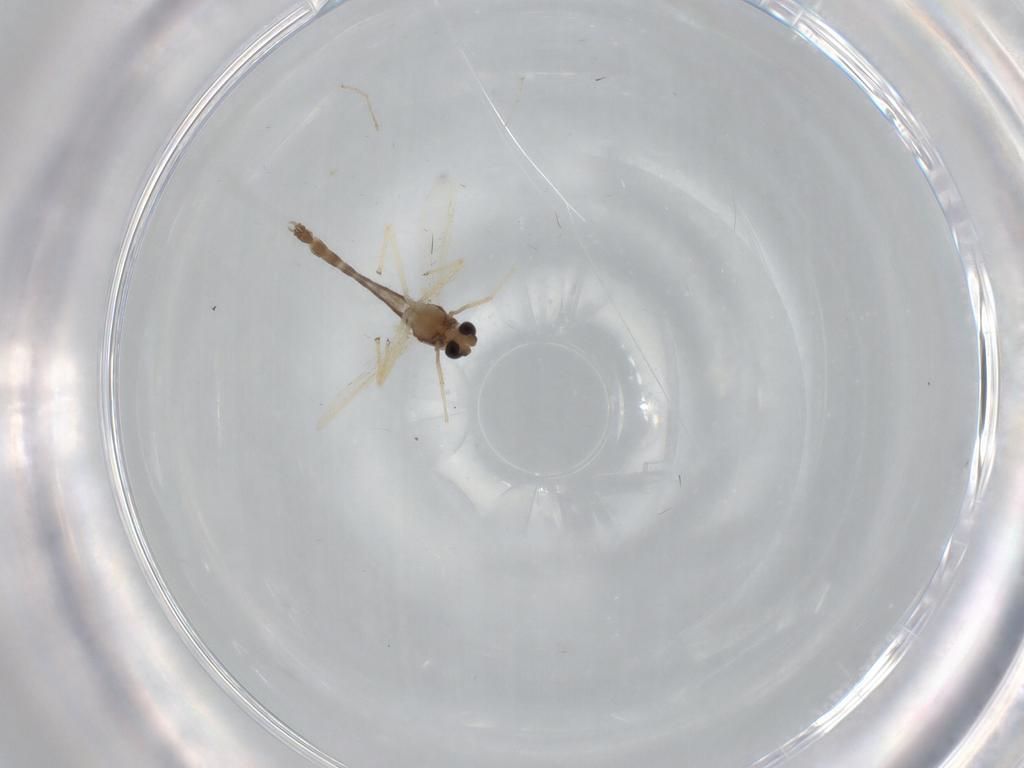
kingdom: Animalia
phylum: Arthropoda
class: Insecta
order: Diptera
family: Chironomidae
